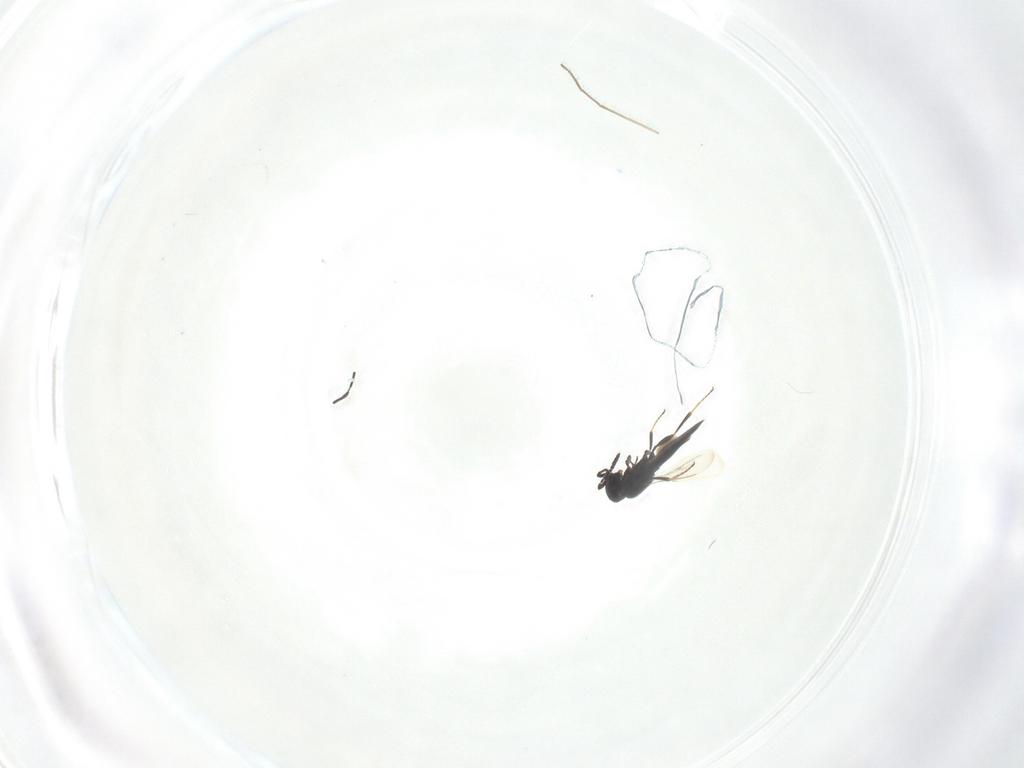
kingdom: Animalia
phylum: Arthropoda
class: Insecta
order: Hymenoptera
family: Scelionidae
